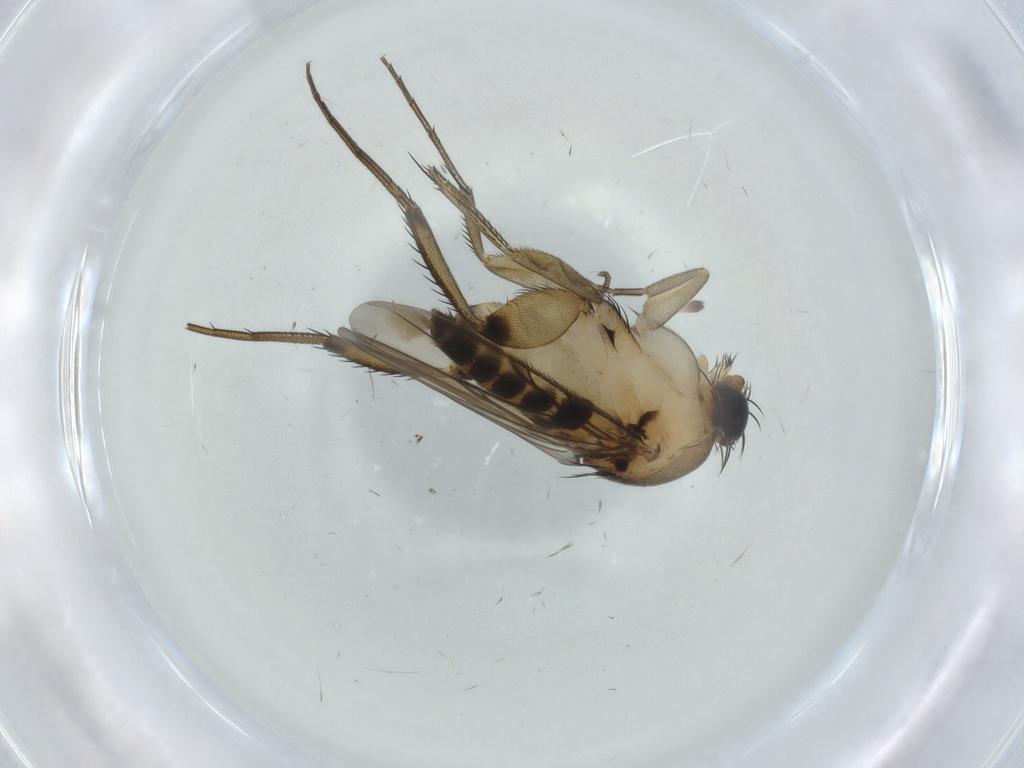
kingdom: Animalia
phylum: Arthropoda
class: Insecta
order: Diptera
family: Phoridae
